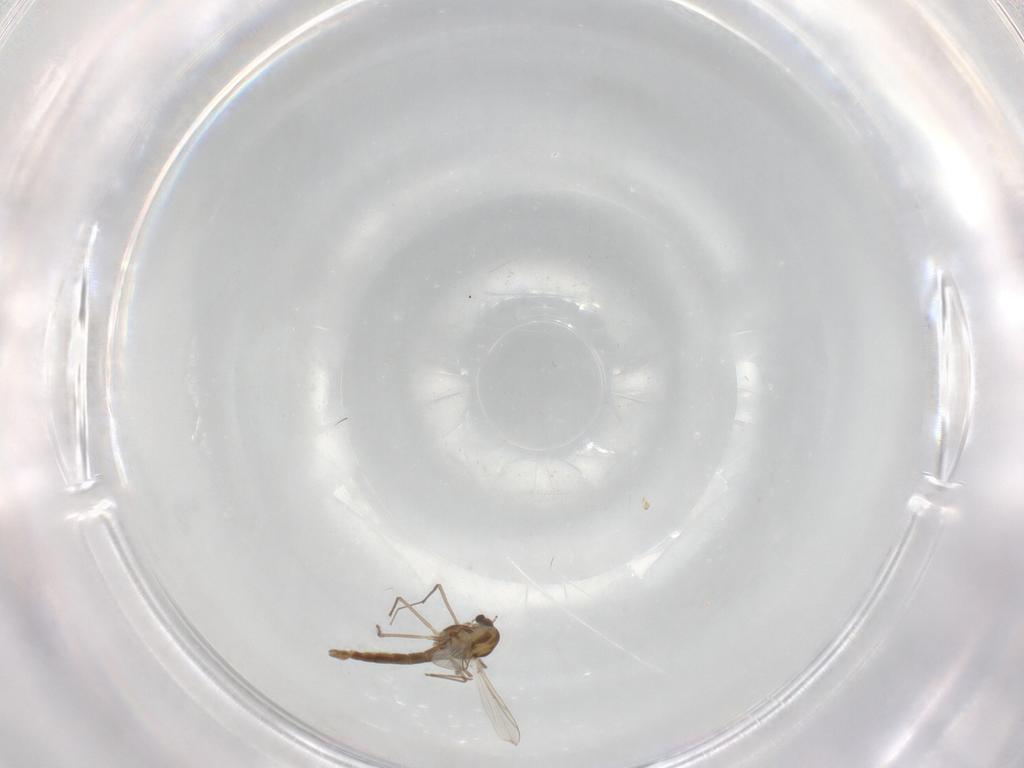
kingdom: Animalia
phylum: Arthropoda
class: Insecta
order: Diptera
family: Chironomidae
